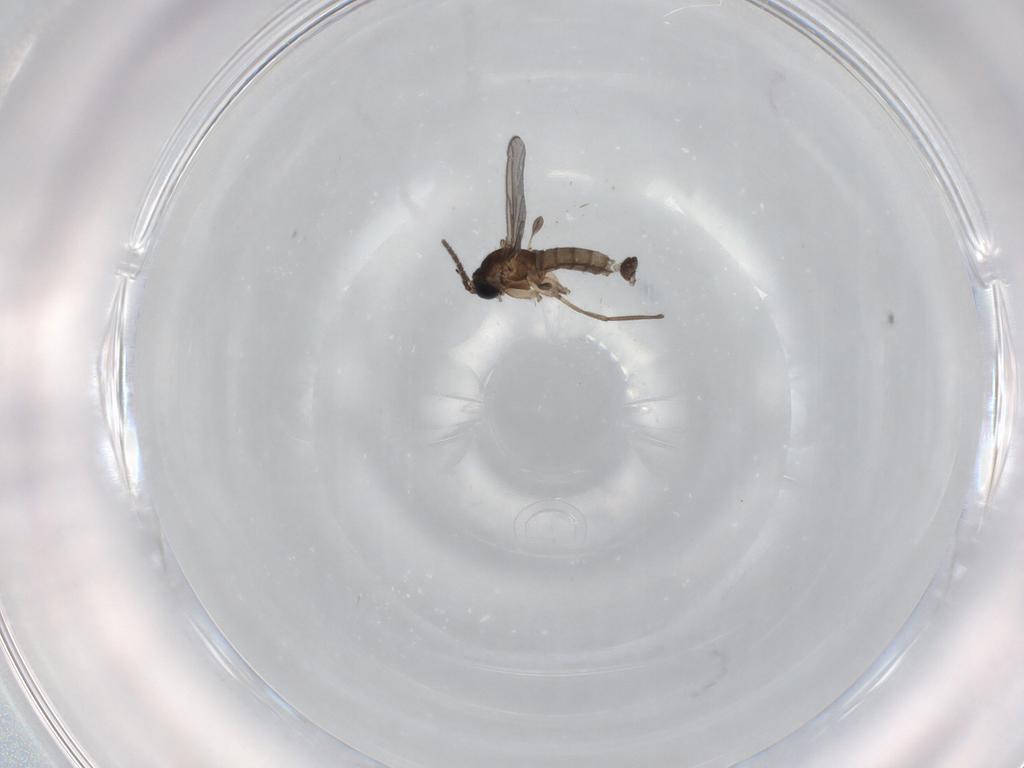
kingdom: Animalia
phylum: Arthropoda
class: Insecta
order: Diptera
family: Sciaridae
